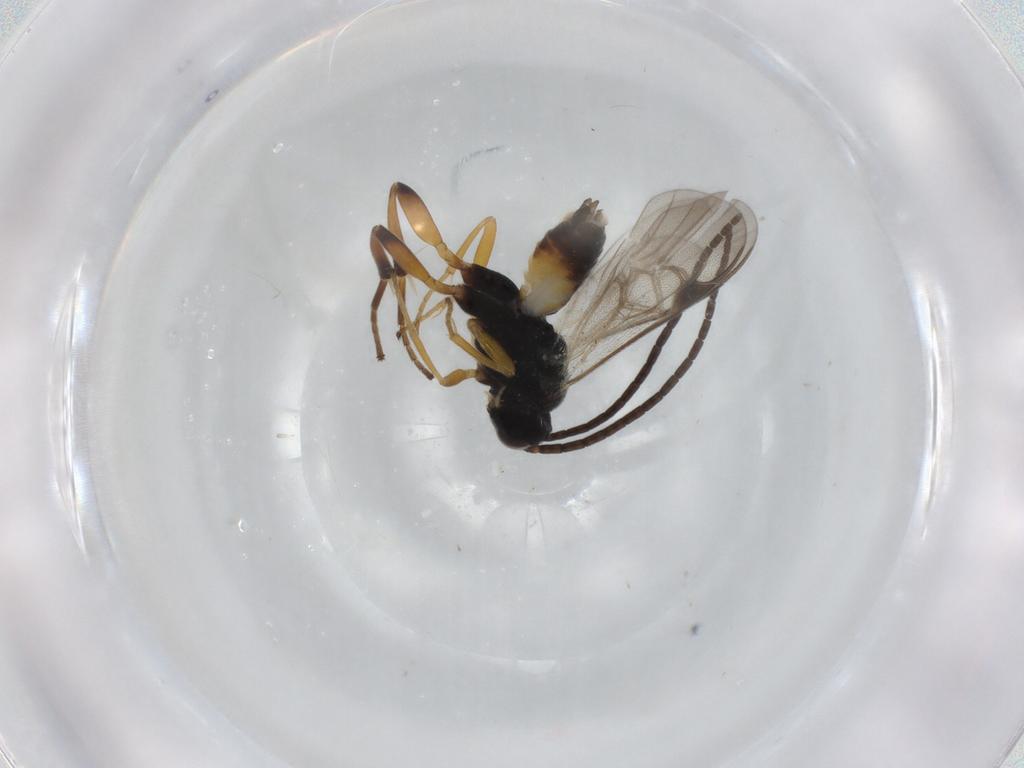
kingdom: Animalia
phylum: Arthropoda
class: Insecta
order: Hymenoptera
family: Braconidae
